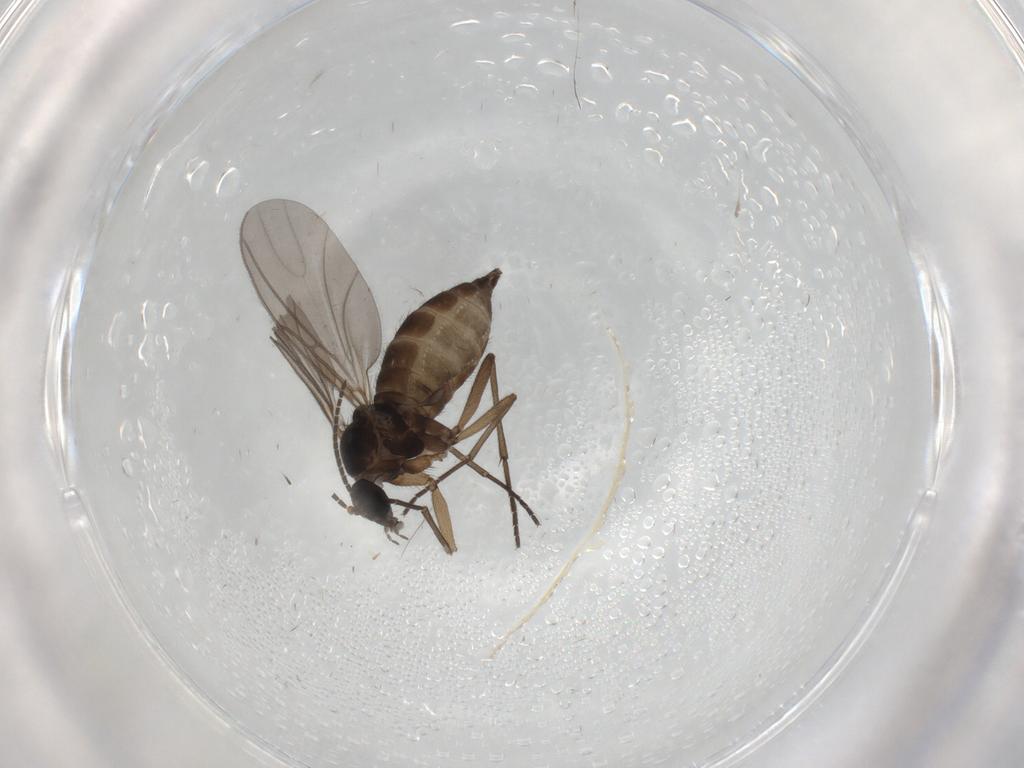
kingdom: Animalia
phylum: Arthropoda
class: Insecta
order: Diptera
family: Sciaridae
